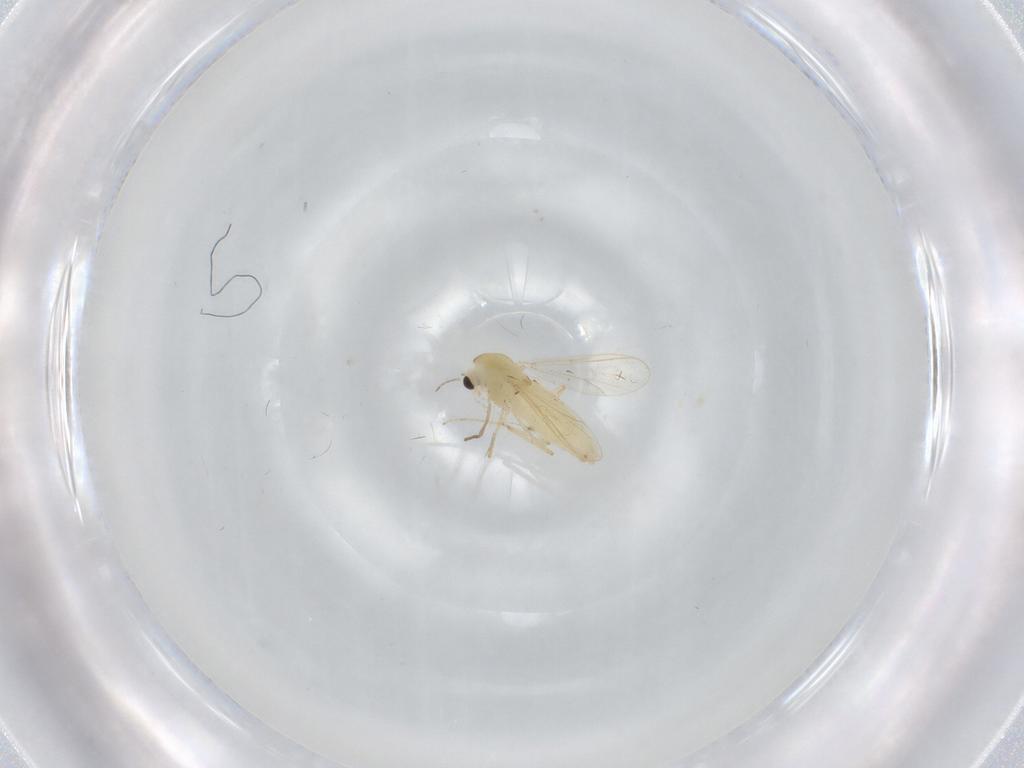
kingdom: Animalia
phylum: Arthropoda
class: Insecta
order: Diptera
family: Chironomidae
